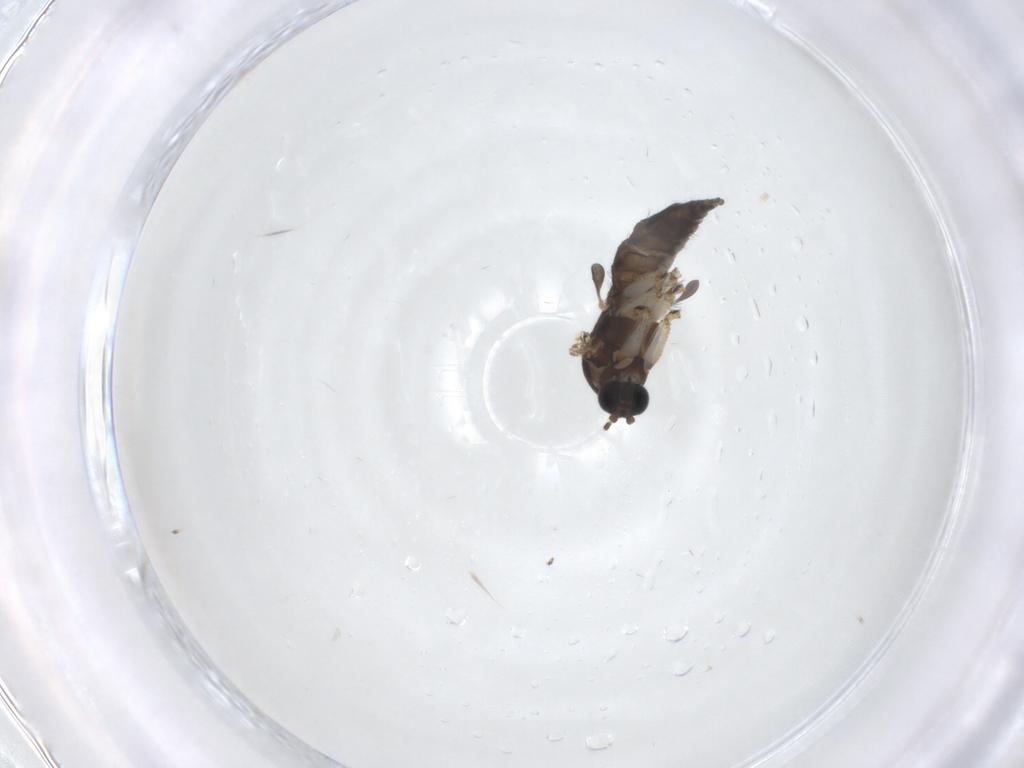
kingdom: Animalia
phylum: Arthropoda
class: Insecta
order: Diptera
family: Sciaridae
